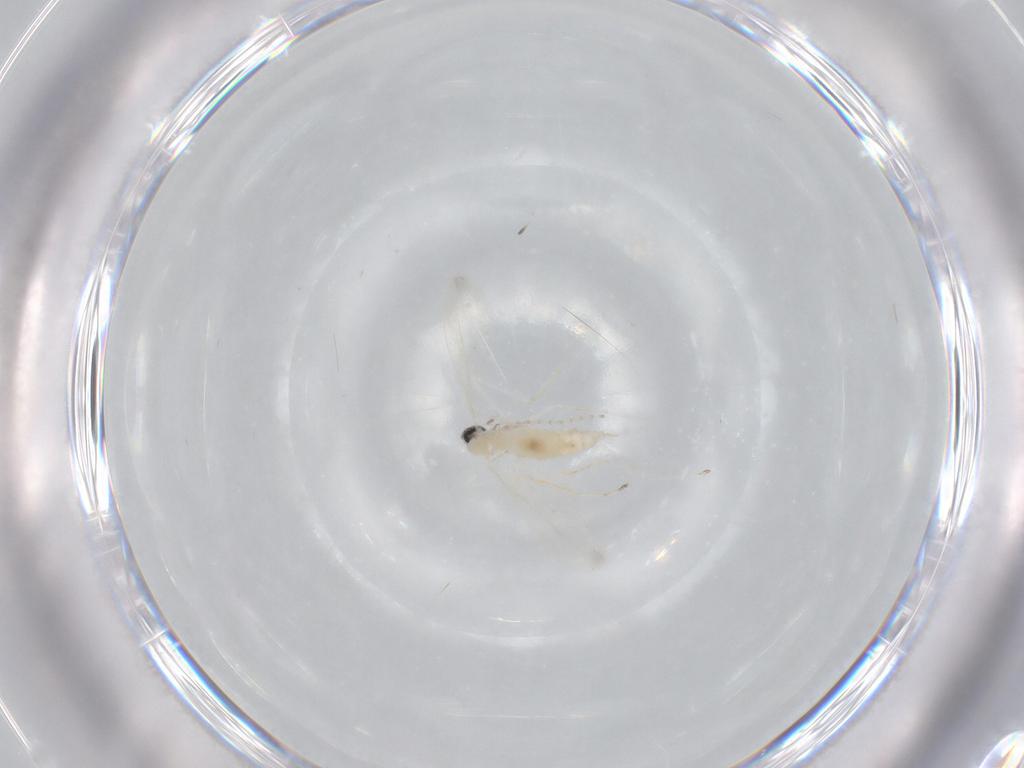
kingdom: Animalia
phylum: Arthropoda
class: Insecta
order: Diptera
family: Cecidomyiidae
